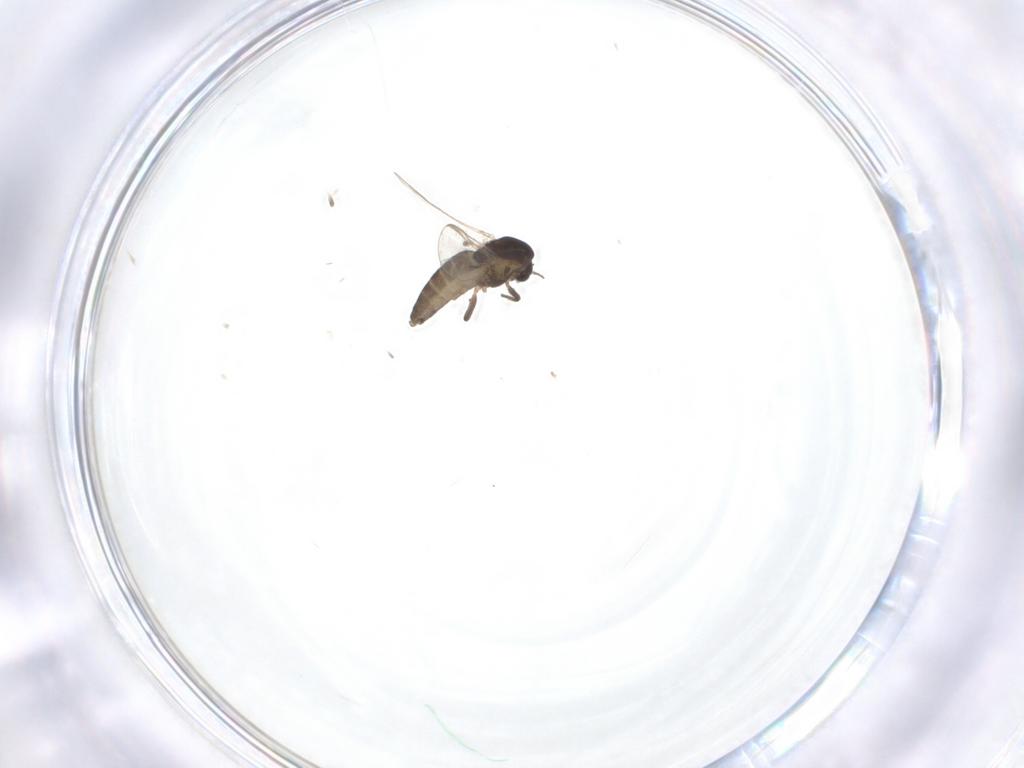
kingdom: Animalia
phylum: Arthropoda
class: Insecta
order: Diptera
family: Chironomidae
